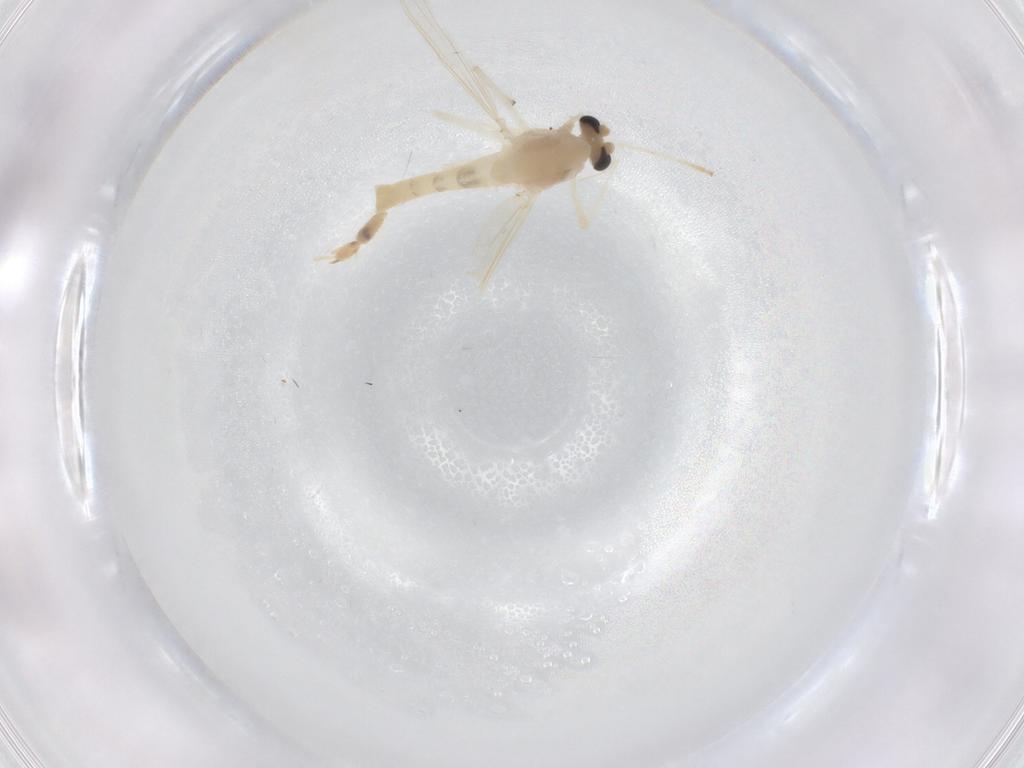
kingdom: Animalia
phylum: Arthropoda
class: Insecta
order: Diptera
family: Chironomidae
